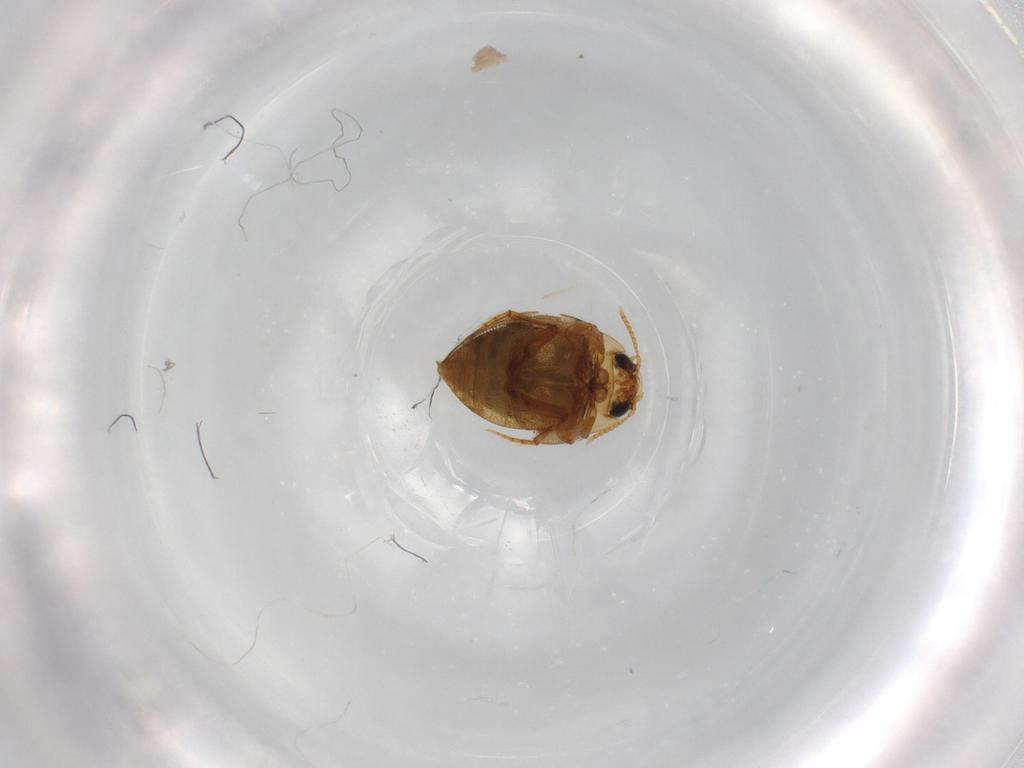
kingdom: Animalia
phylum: Arthropoda
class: Insecta
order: Coleoptera
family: Dytiscidae
